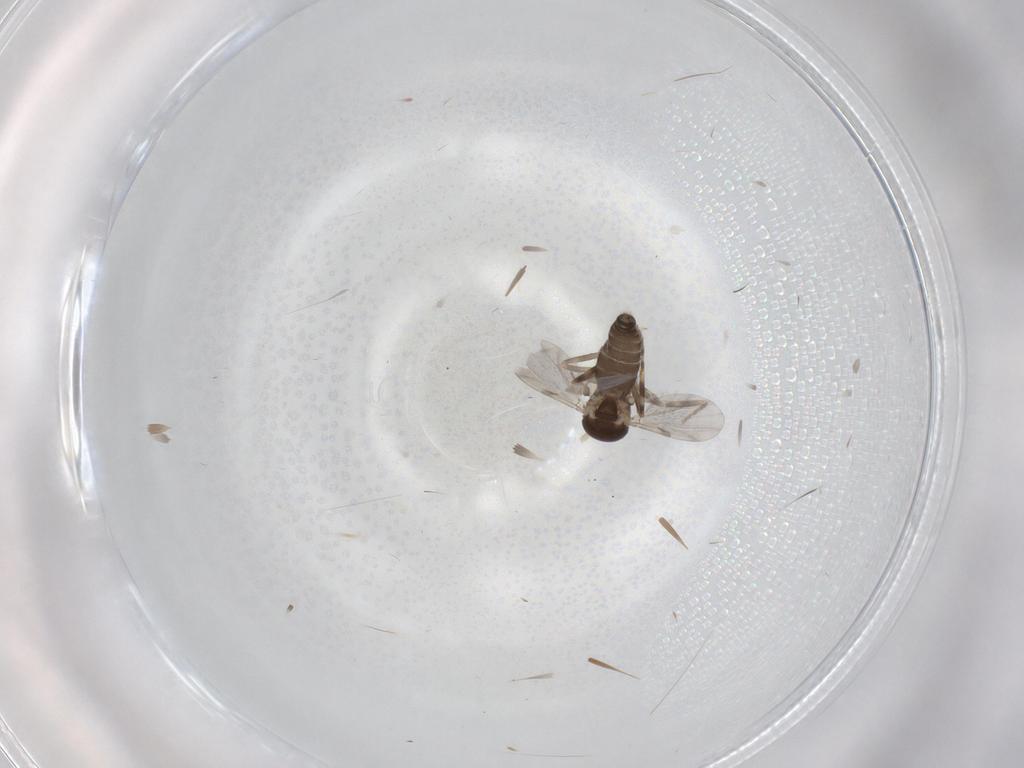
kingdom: Animalia
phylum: Arthropoda
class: Insecta
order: Diptera
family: Ceratopogonidae
